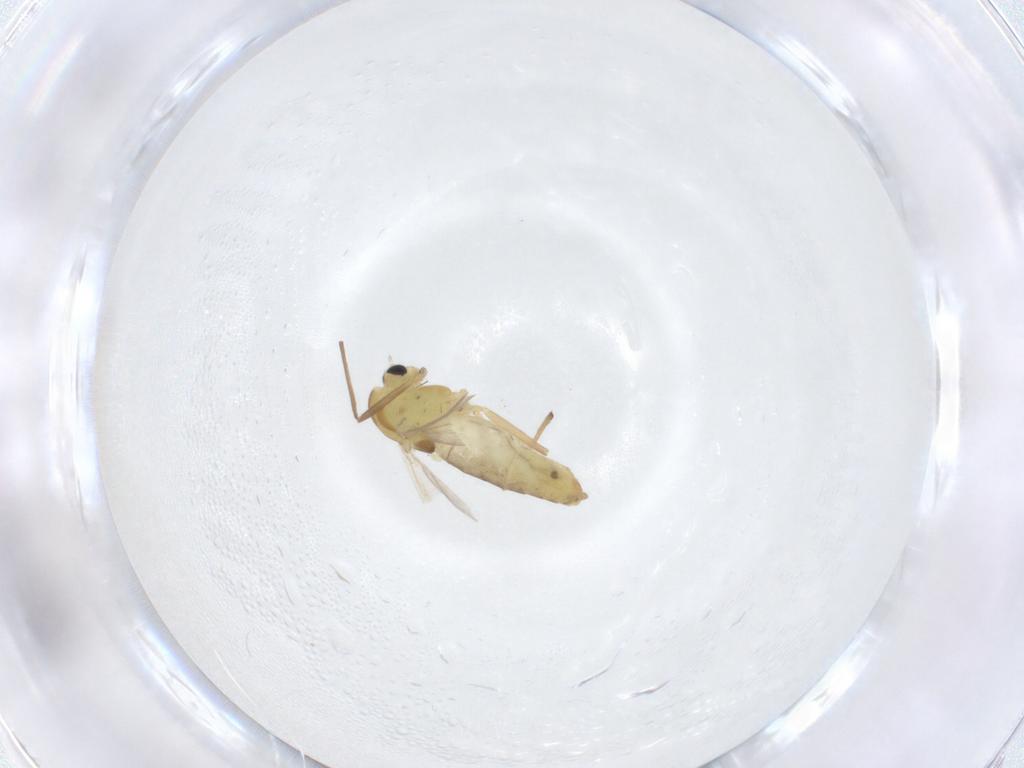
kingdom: Animalia
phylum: Arthropoda
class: Insecta
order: Diptera
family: Chironomidae
